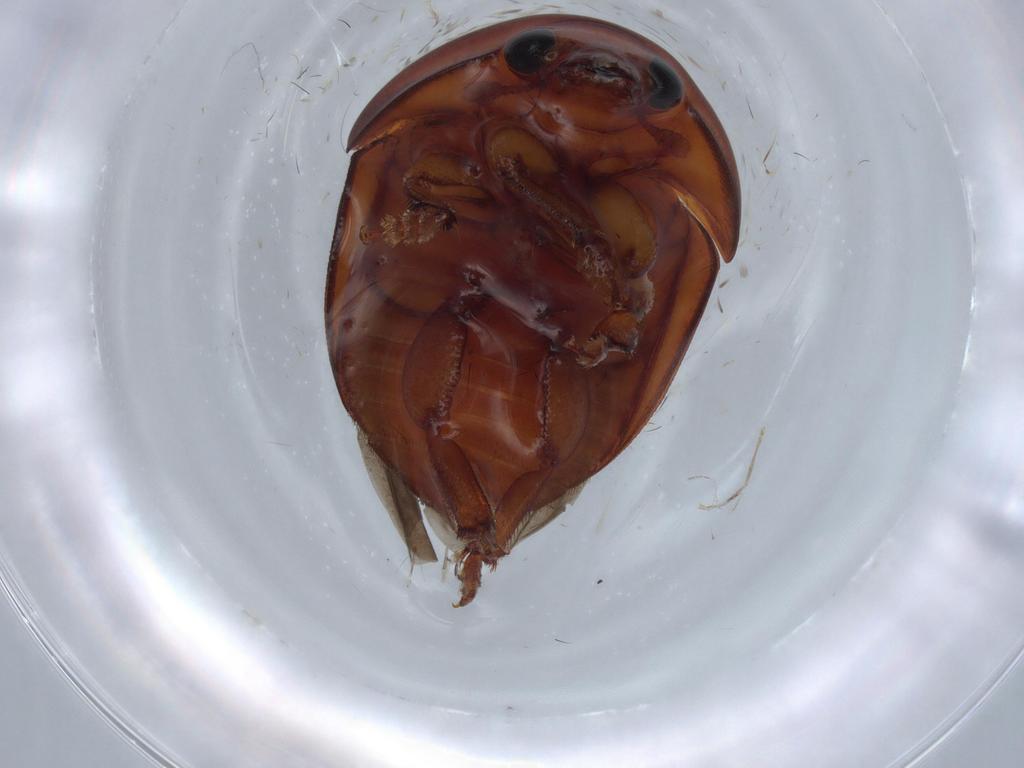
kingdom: Animalia
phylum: Arthropoda
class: Insecta
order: Coleoptera
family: Nitidulidae
